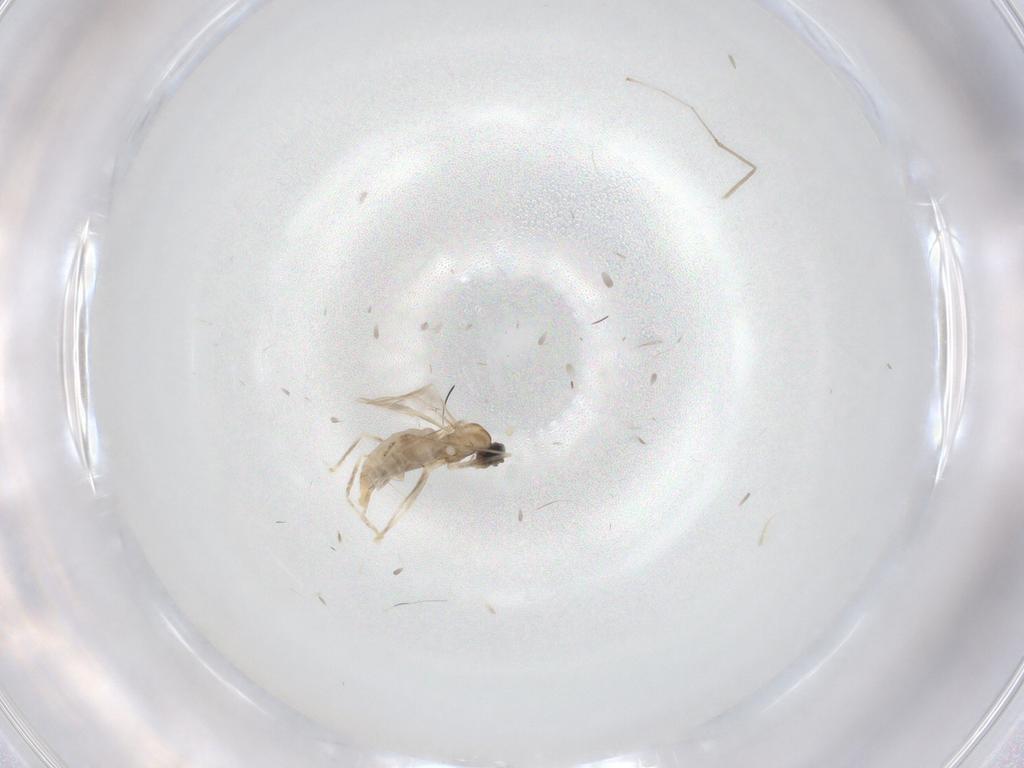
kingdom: Animalia
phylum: Arthropoda
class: Insecta
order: Diptera
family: Cecidomyiidae
